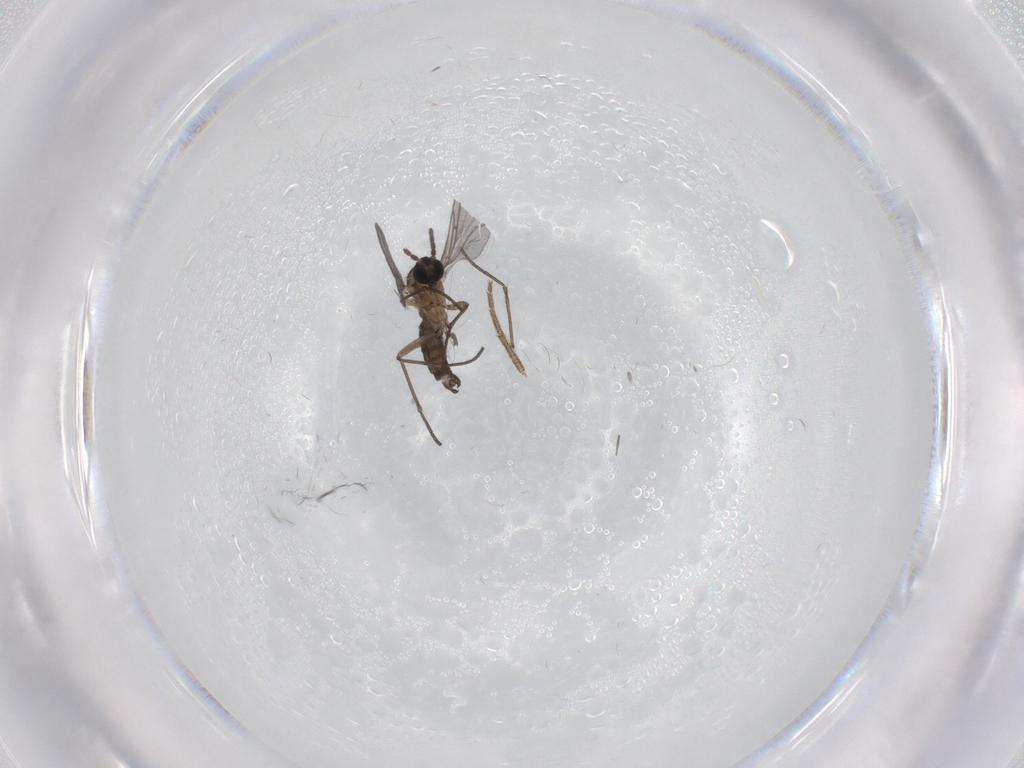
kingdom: Animalia
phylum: Arthropoda
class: Insecta
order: Diptera
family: Sciaridae
